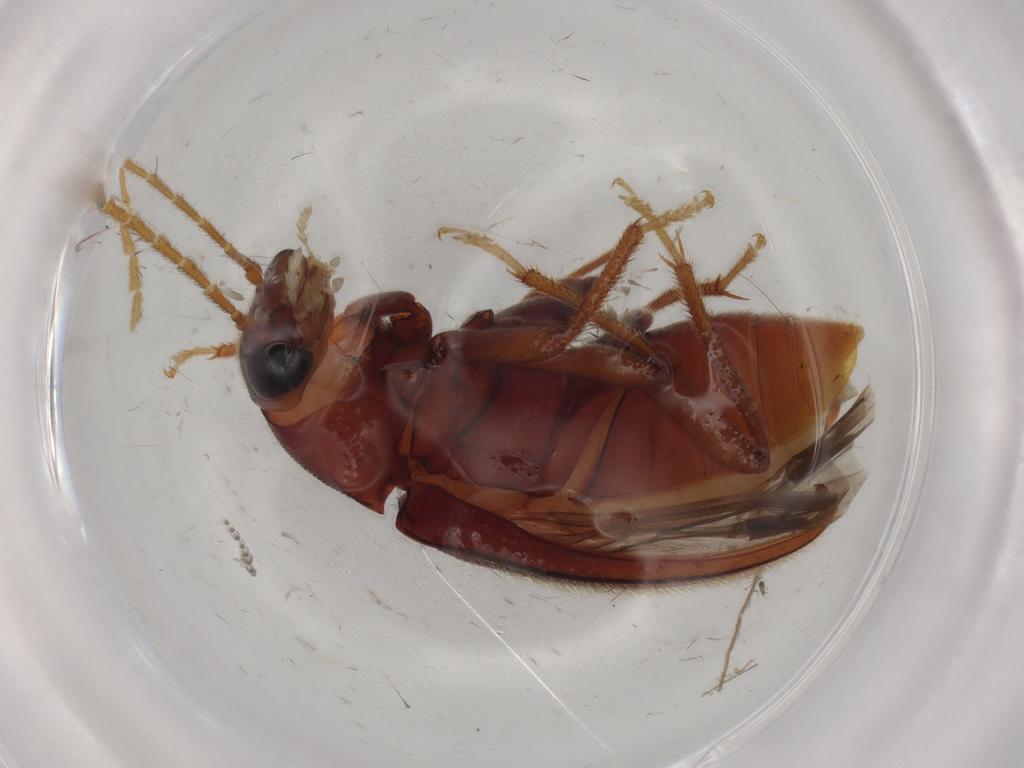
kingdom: Animalia
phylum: Arthropoda
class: Insecta
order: Coleoptera
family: Ptilodactylidae
